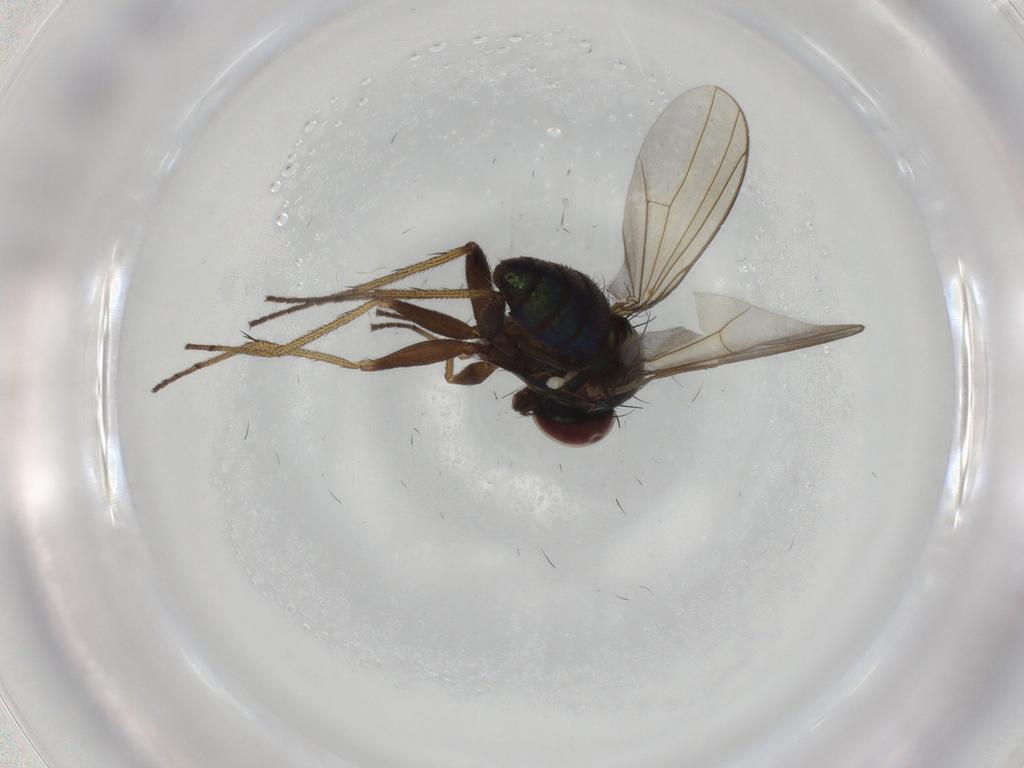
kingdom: Animalia
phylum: Arthropoda
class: Insecta
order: Diptera
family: Dolichopodidae
